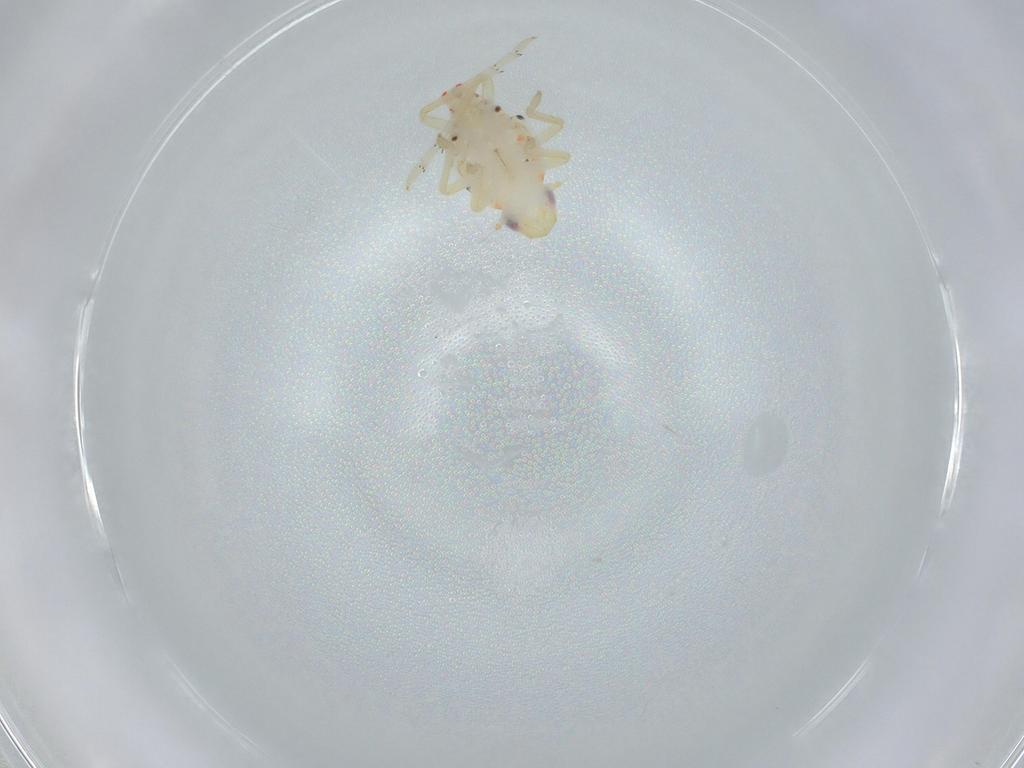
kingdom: Animalia
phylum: Arthropoda
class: Insecta
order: Hemiptera
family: Tropiduchidae
